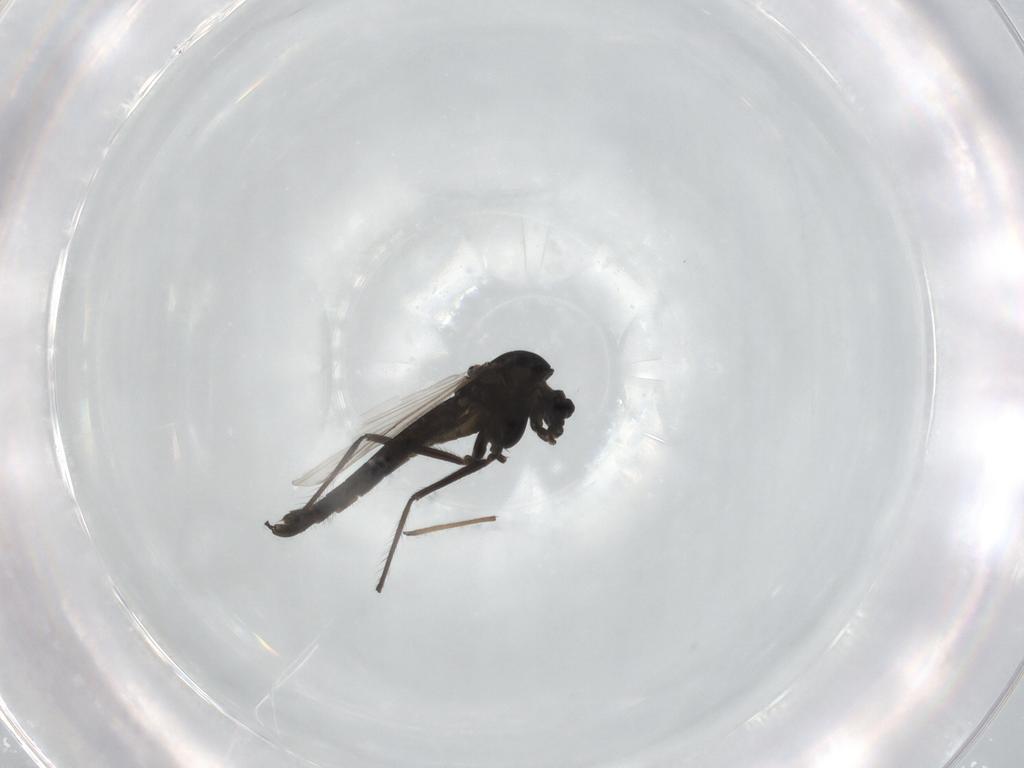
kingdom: Animalia
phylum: Arthropoda
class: Insecta
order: Diptera
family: Chironomidae
